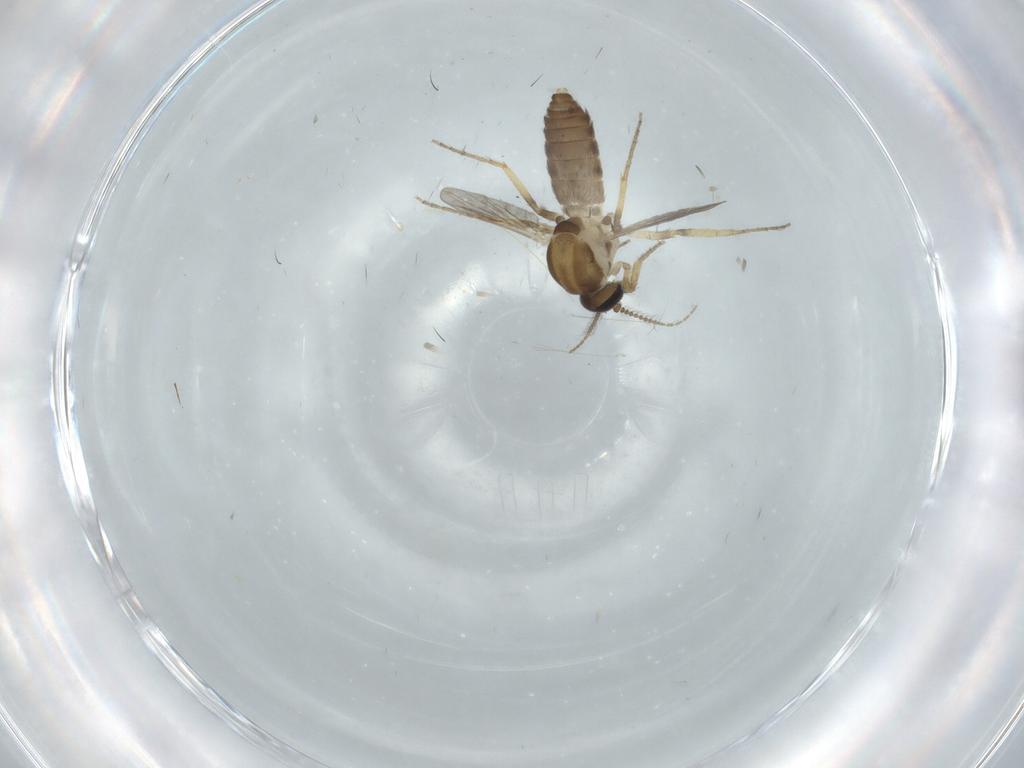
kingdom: Animalia
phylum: Arthropoda
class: Insecta
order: Diptera
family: Ceratopogonidae
